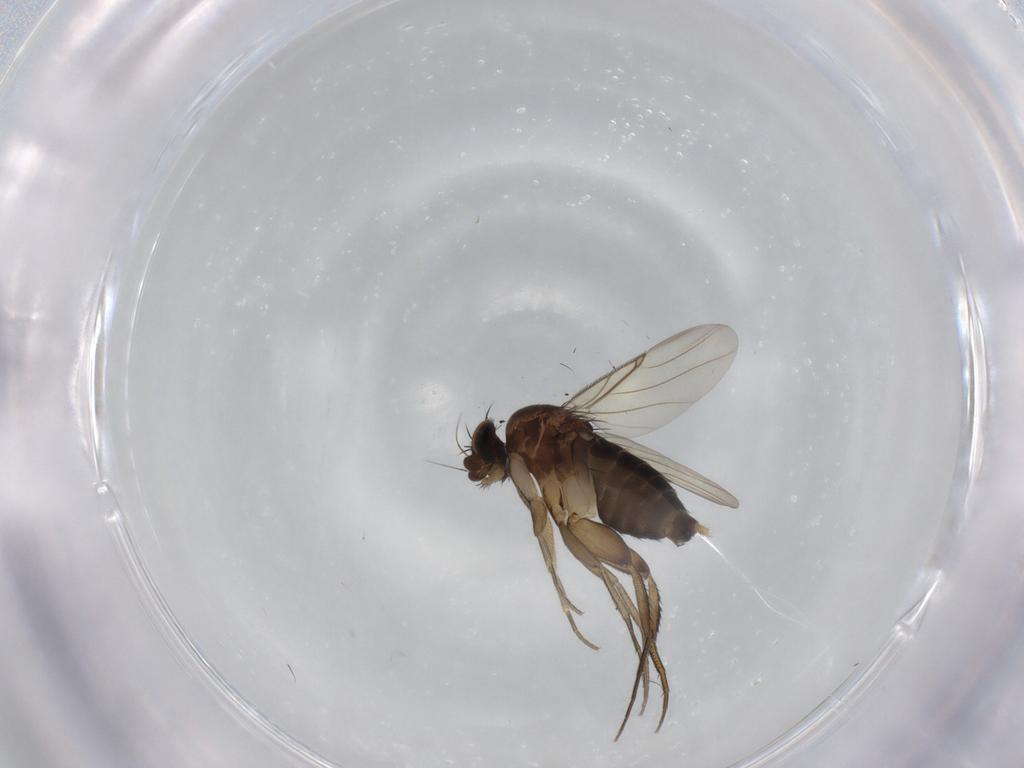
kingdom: Animalia
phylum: Arthropoda
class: Insecta
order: Diptera
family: Phoridae
